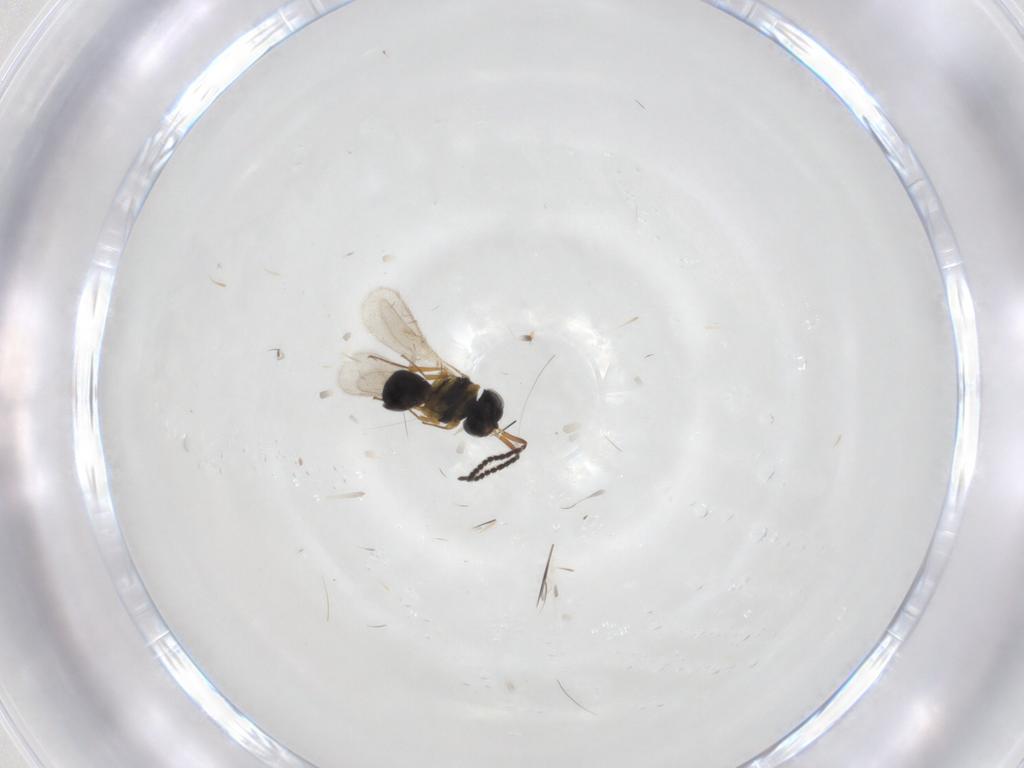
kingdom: Animalia
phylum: Arthropoda
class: Insecta
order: Hymenoptera
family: Scelionidae
